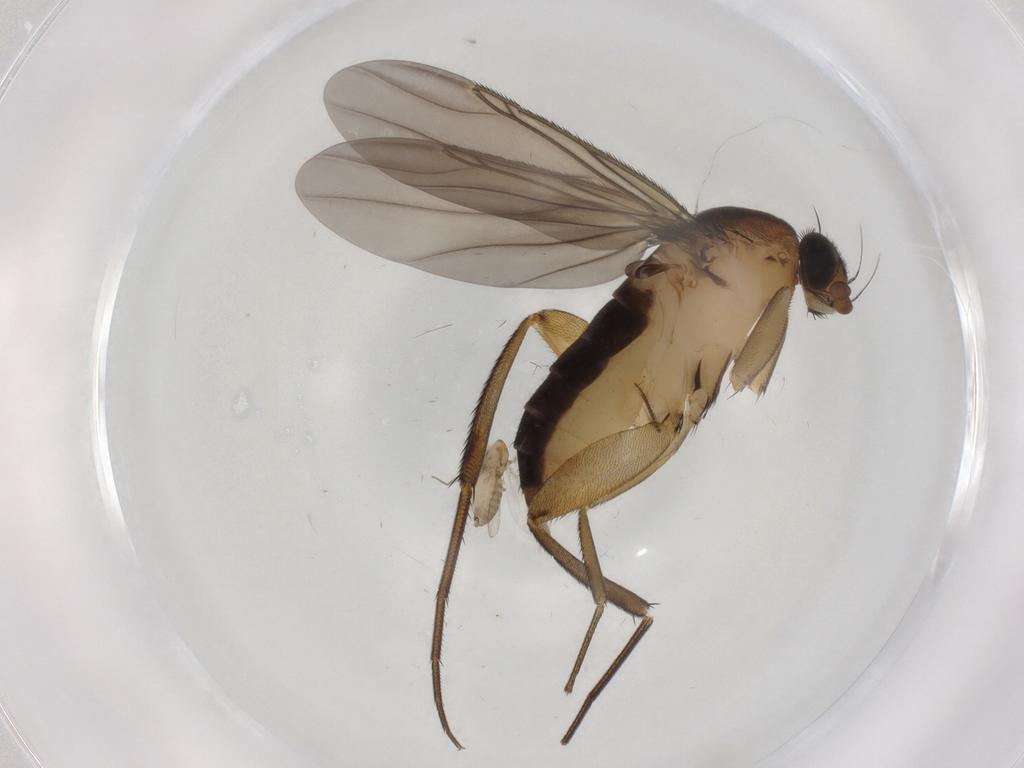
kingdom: Animalia
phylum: Arthropoda
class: Insecta
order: Diptera
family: Chironomidae
